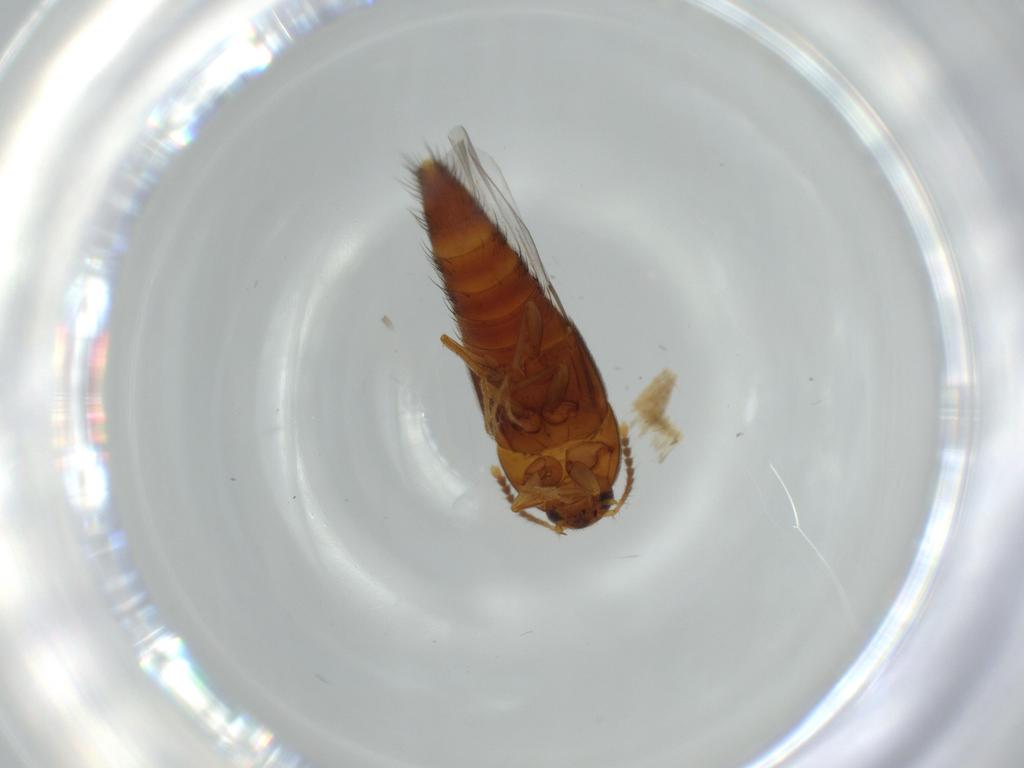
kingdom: Animalia
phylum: Arthropoda
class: Insecta
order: Coleoptera
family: Staphylinidae
